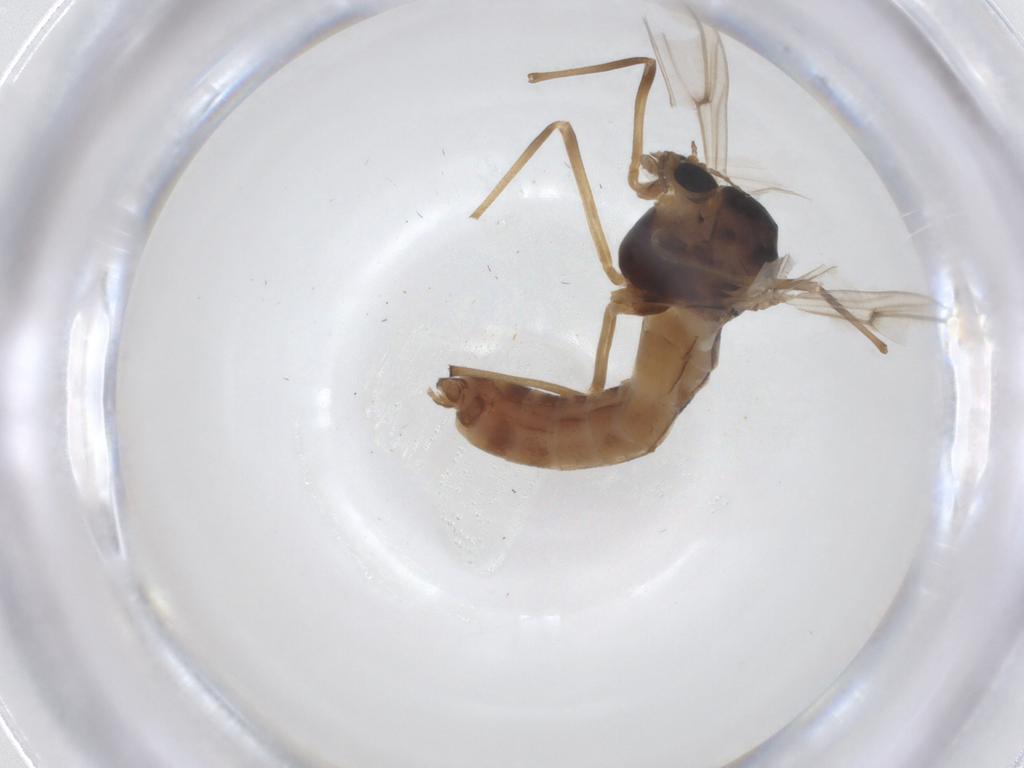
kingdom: Animalia
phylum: Arthropoda
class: Insecta
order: Diptera
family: Mycetophilidae
